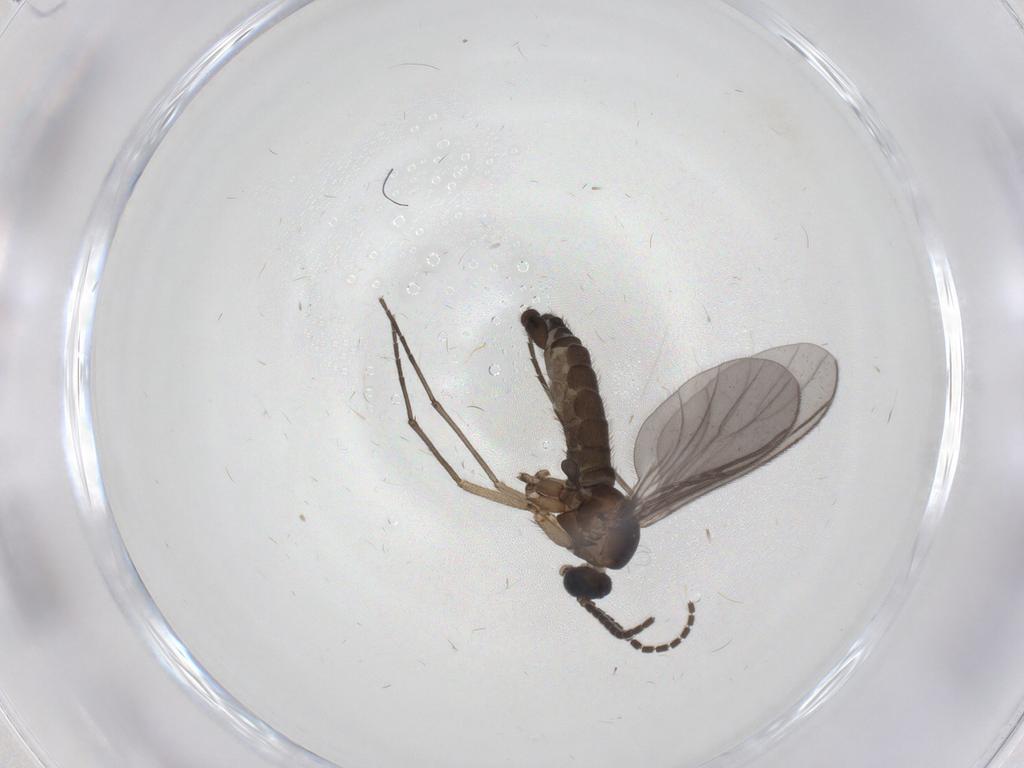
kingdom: Animalia
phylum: Arthropoda
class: Insecta
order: Diptera
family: Sciaridae
